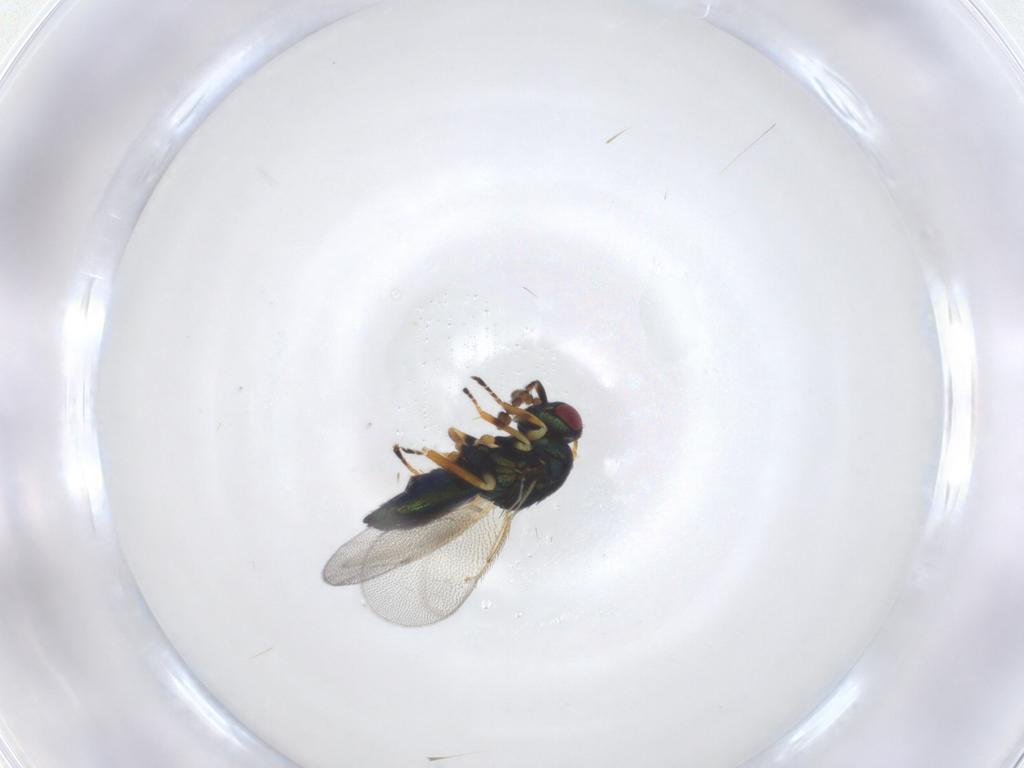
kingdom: Animalia
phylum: Arthropoda
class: Insecta
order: Hymenoptera
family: Eulophidae
